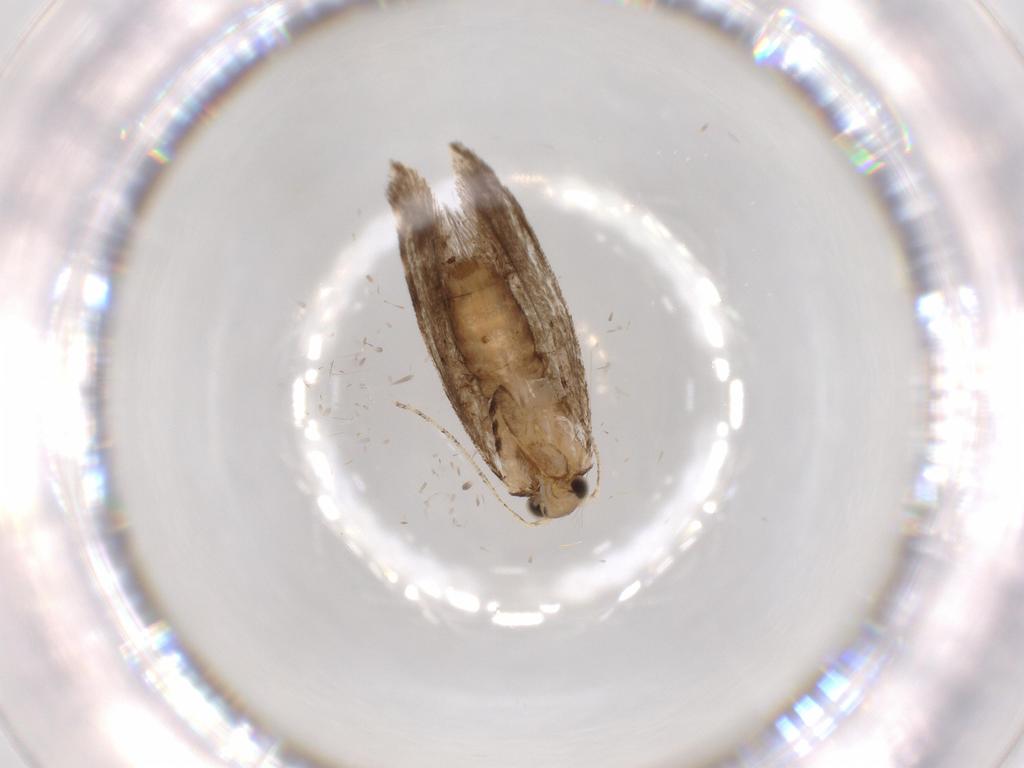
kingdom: Animalia
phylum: Arthropoda
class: Insecta
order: Lepidoptera
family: Tineidae
